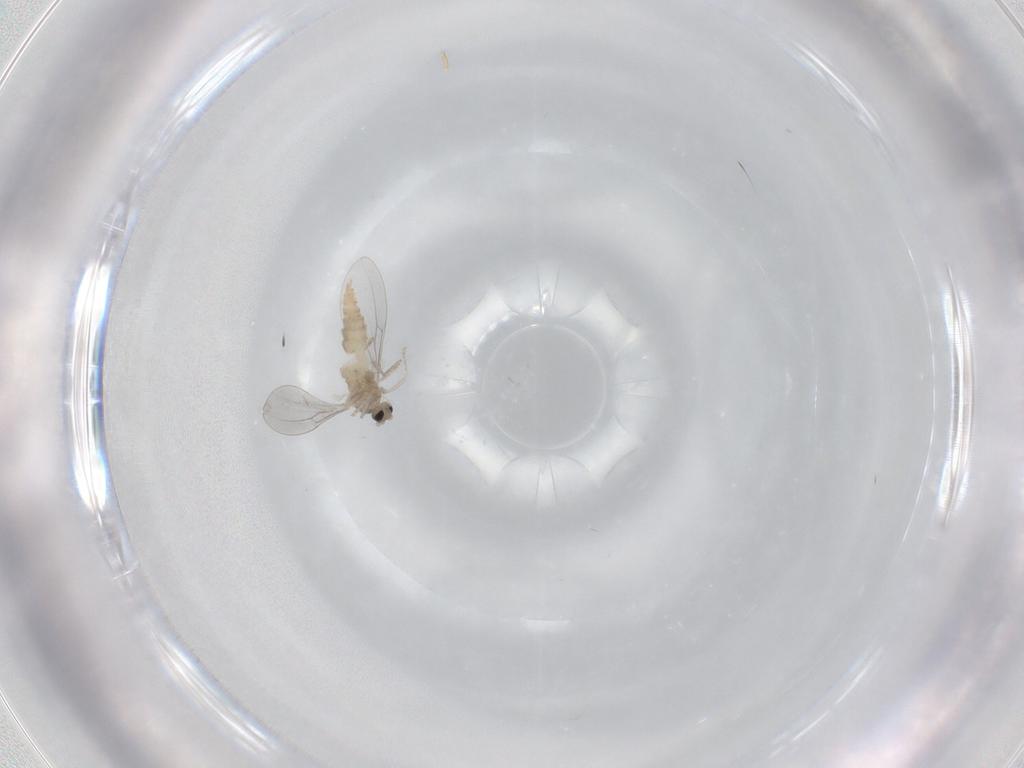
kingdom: Animalia
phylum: Arthropoda
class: Insecta
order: Diptera
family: Cecidomyiidae
